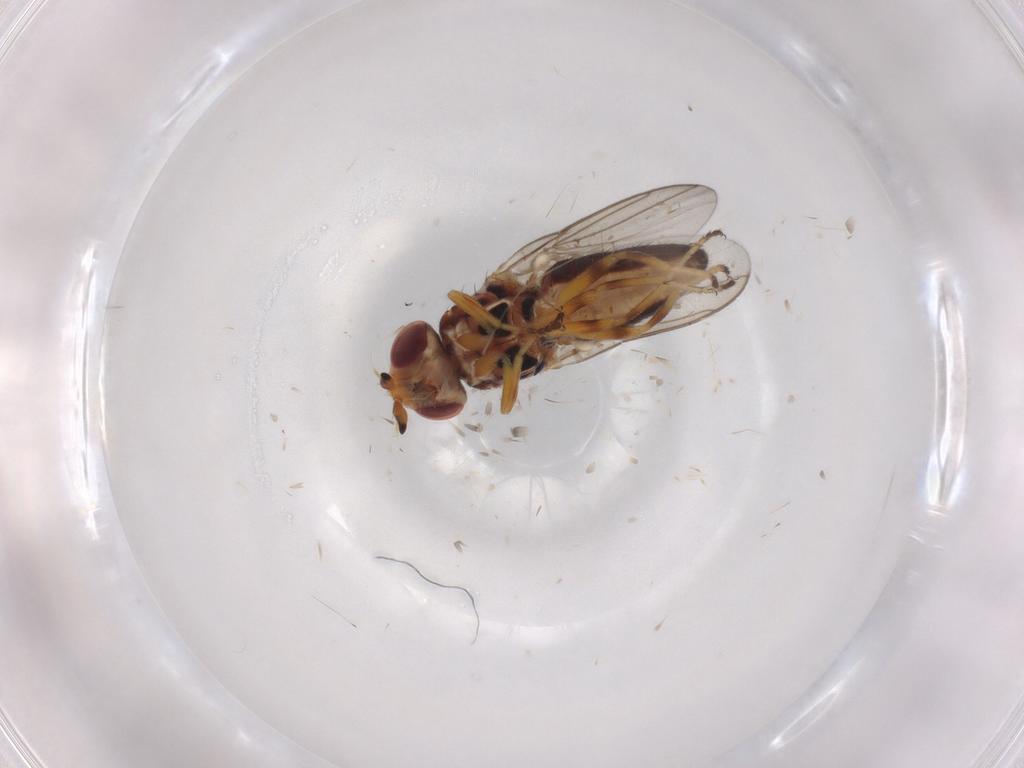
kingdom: Animalia
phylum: Arthropoda
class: Insecta
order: Diptera
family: Chloropidae
